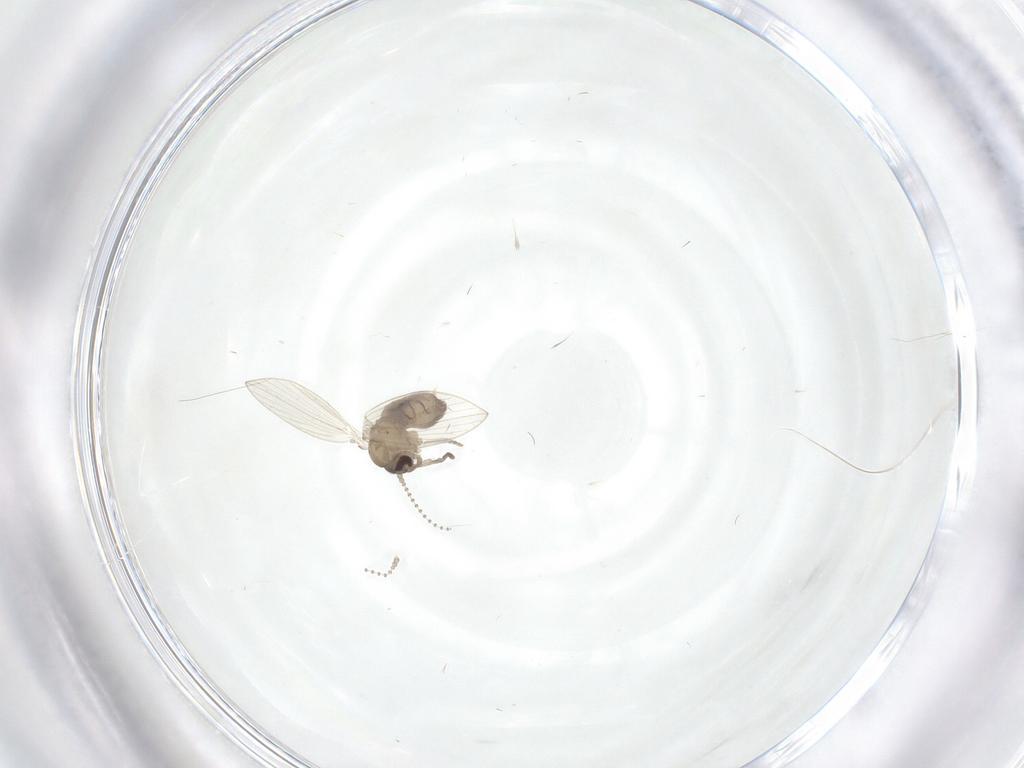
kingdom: Animalia
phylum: Arthropoda
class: Insecta
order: Diptera
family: Psychodidae
